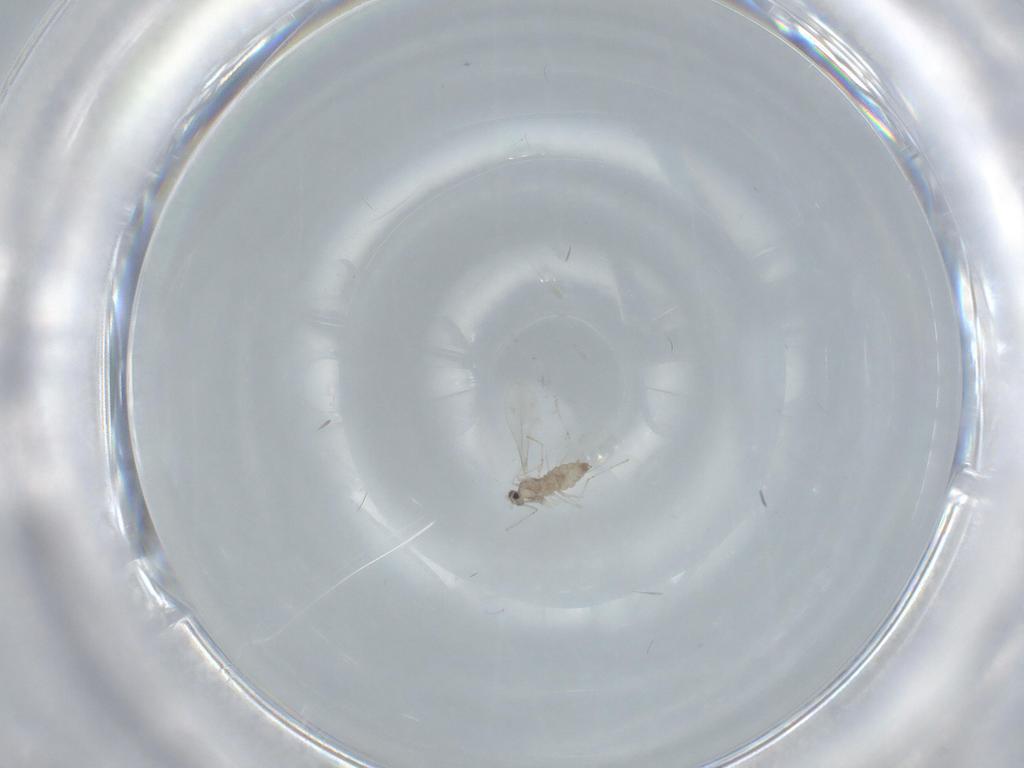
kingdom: Animalia
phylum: Arthropoda
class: Insecta
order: Diptera
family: Cecidomyiidae
